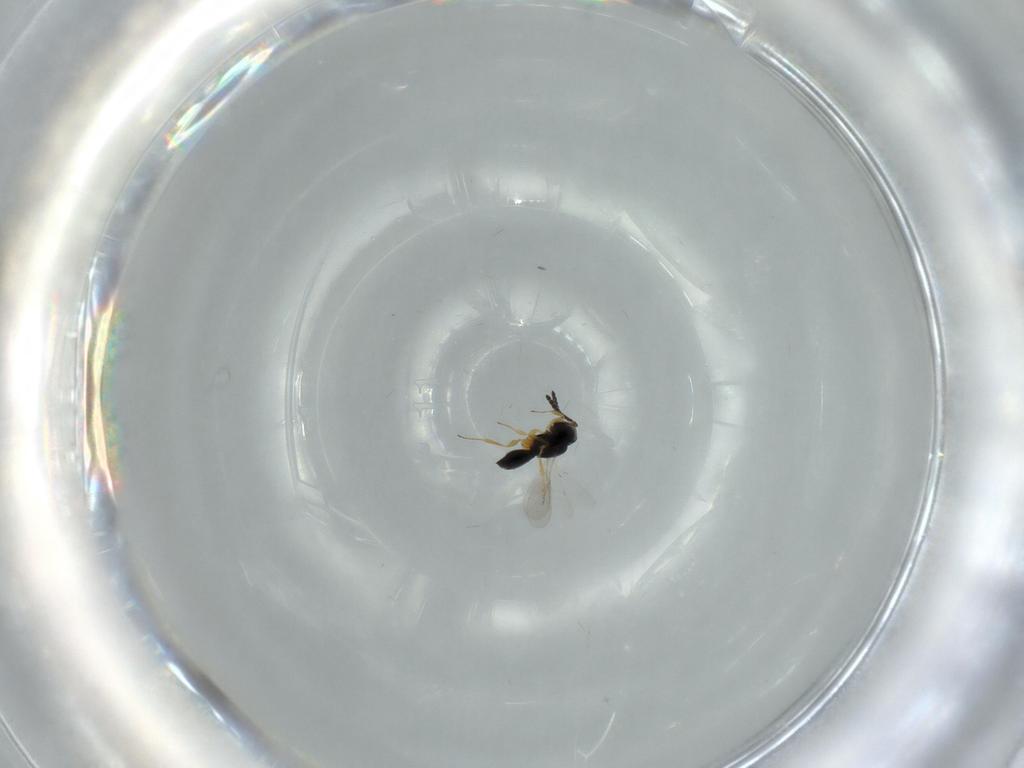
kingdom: Animalia
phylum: Arthropoda
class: Insecta
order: Hymenoptera
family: Scelionidae
